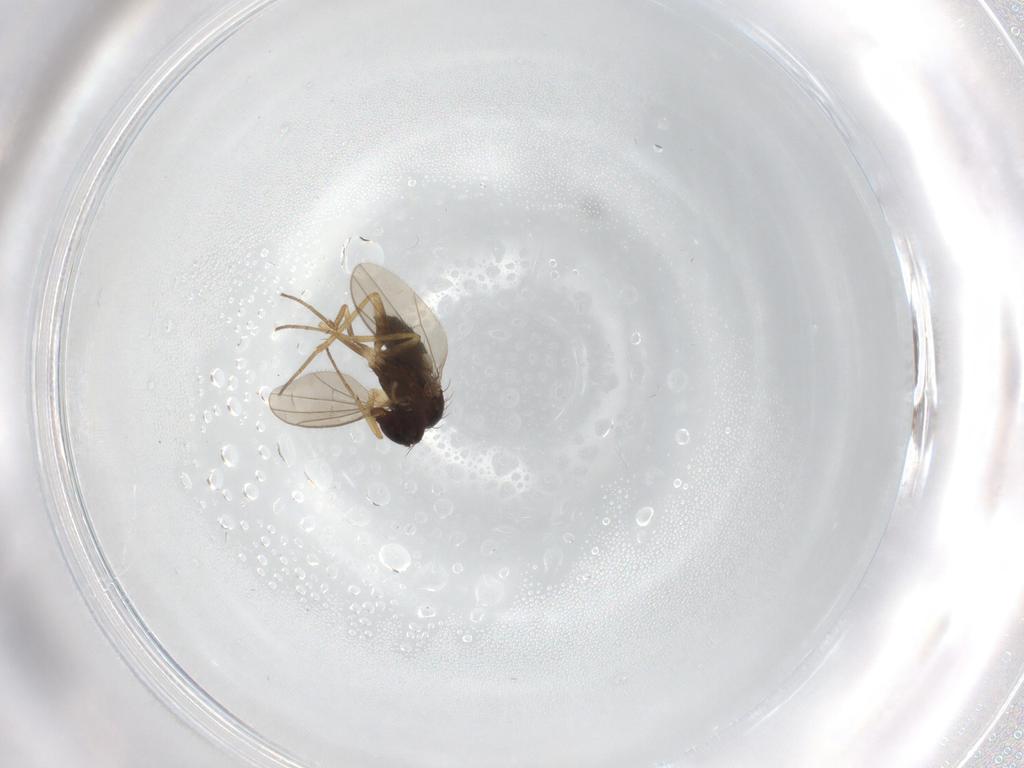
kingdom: Animalia
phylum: Arthropoda
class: Insecta
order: Diptera
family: Dolichopodidae
